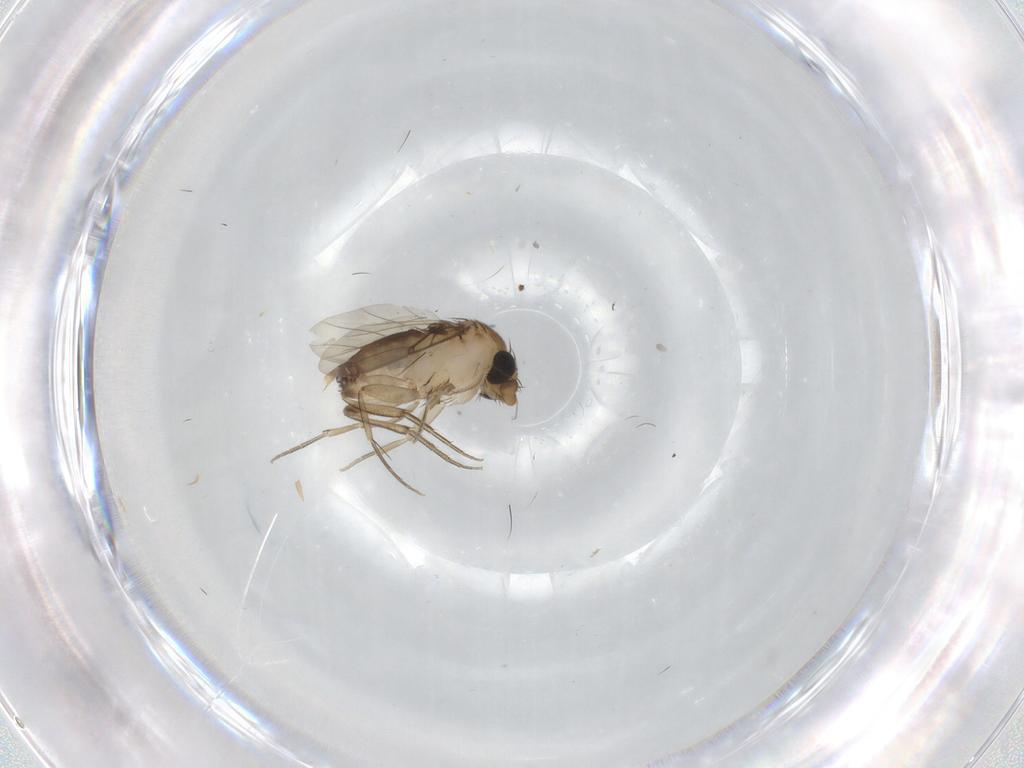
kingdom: Animalia
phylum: Arthropoda
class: Insecta
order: Diptera
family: Phoridae
